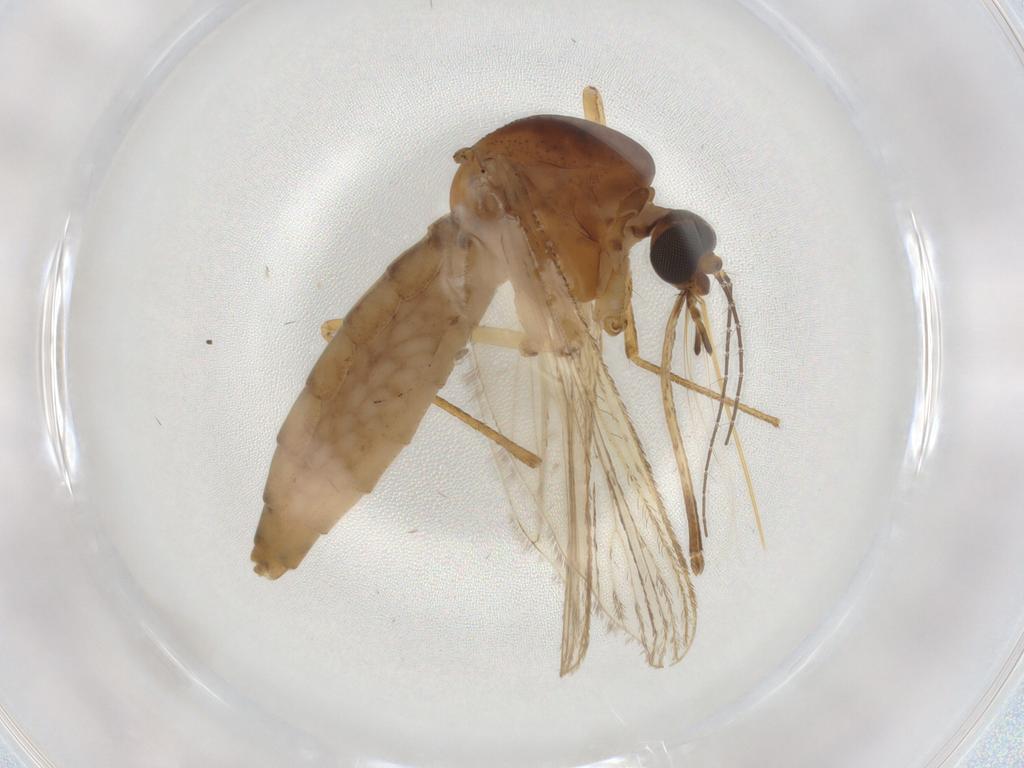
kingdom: Animalia
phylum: Arthropoda
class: Insecta
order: Diptera
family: Culicidae
